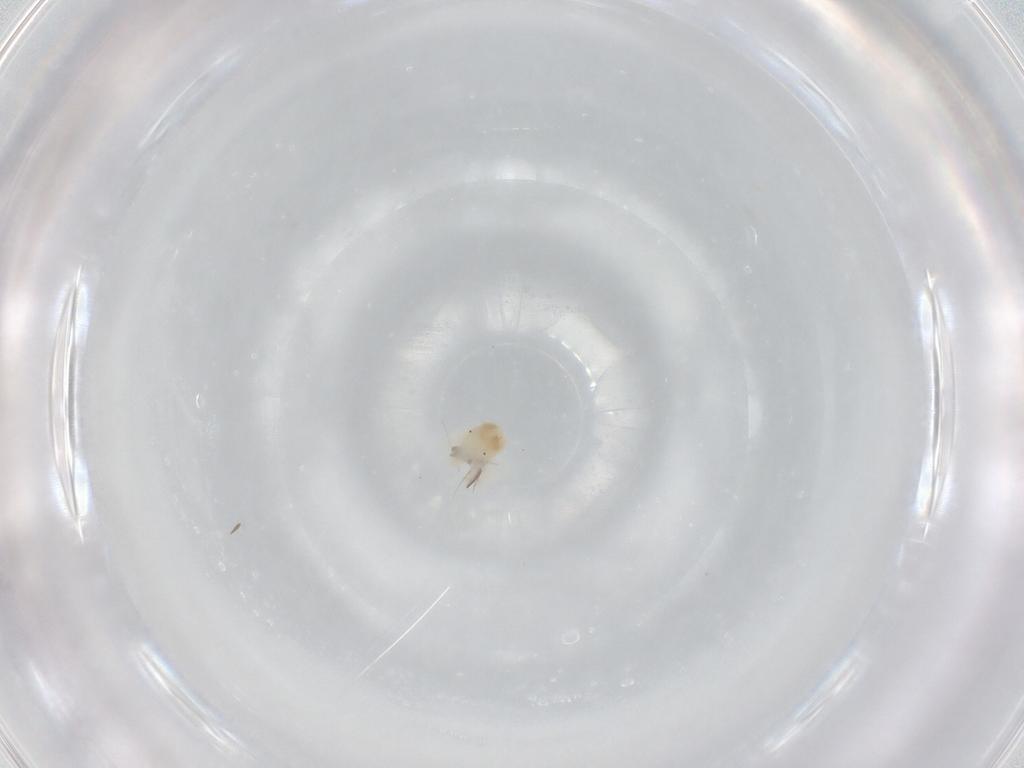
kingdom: Animalia
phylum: Arthropoda
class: Arachnida
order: Trombidiformes
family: Anystidae
